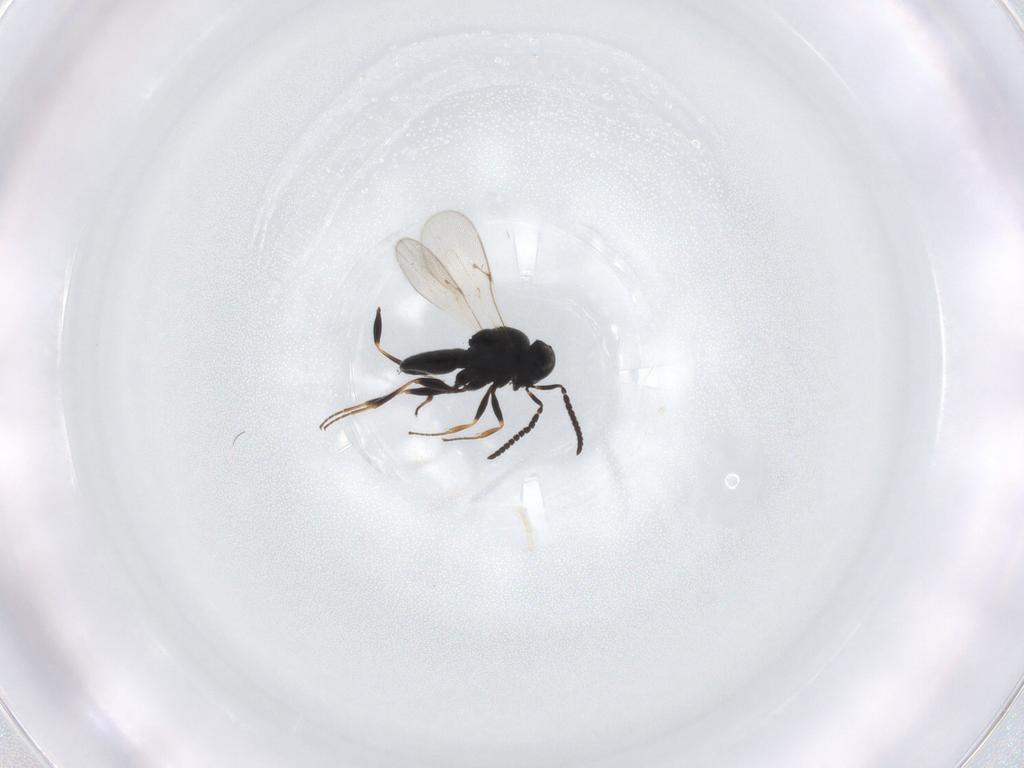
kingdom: Animalia
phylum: Arthropoda
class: Insecta
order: Hymenoptera
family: Scelionidae
